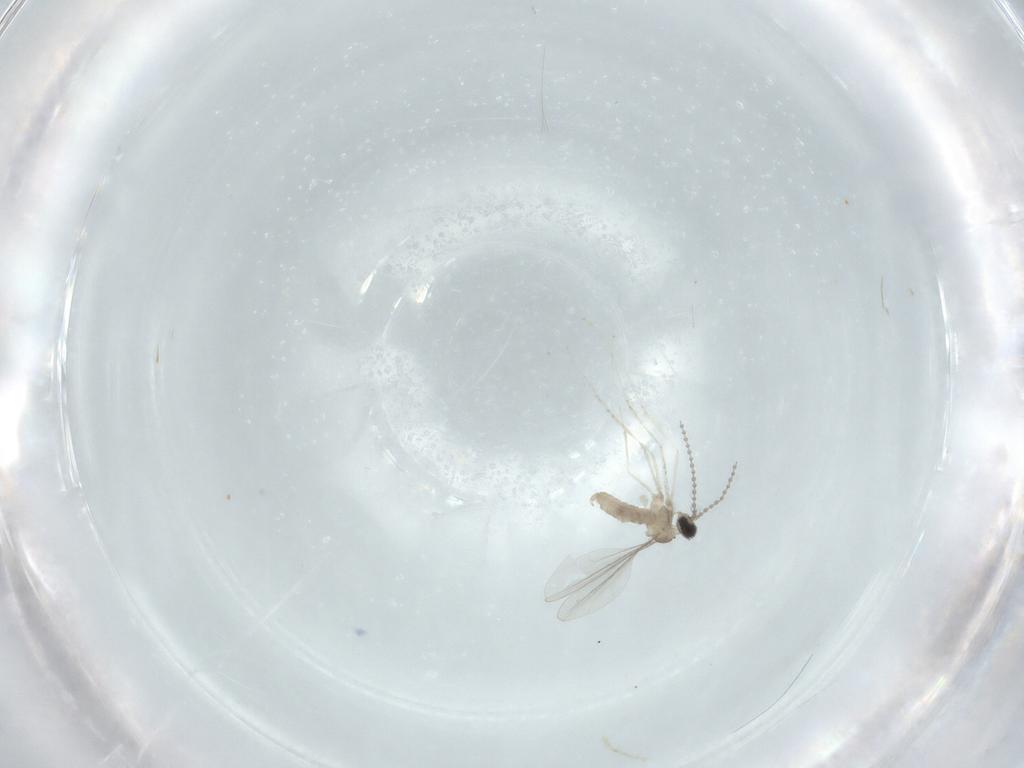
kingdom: Animalia
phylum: Arthropoda
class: Insecta
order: Diptera
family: Cecidomyiidae
